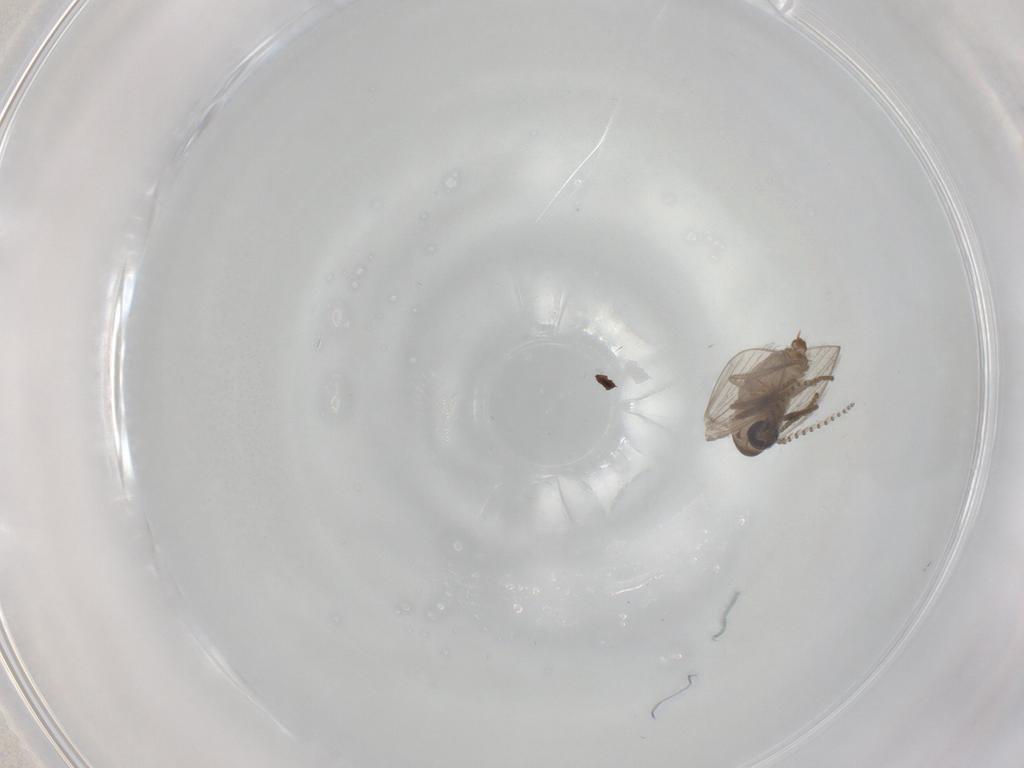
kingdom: Animalia
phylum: Arthropoda
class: Insecta
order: Diptera
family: Psychodidae
